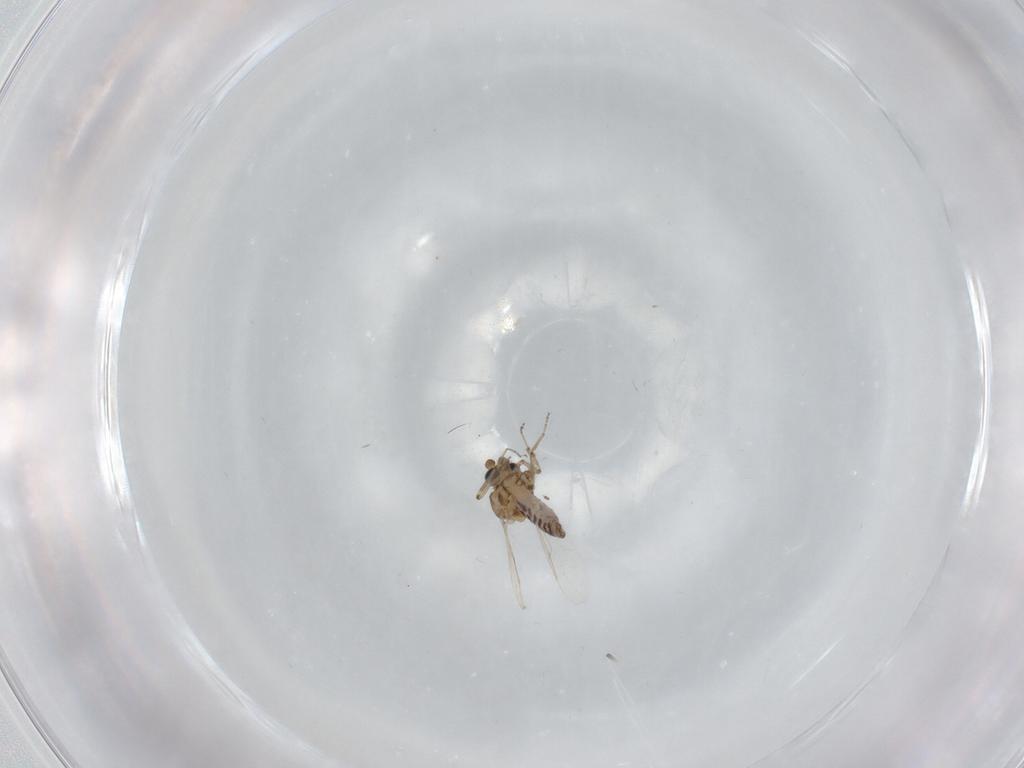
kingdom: Animalia
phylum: Arthropoda
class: Insecta
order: Diptera
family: Ceratopogonidae
